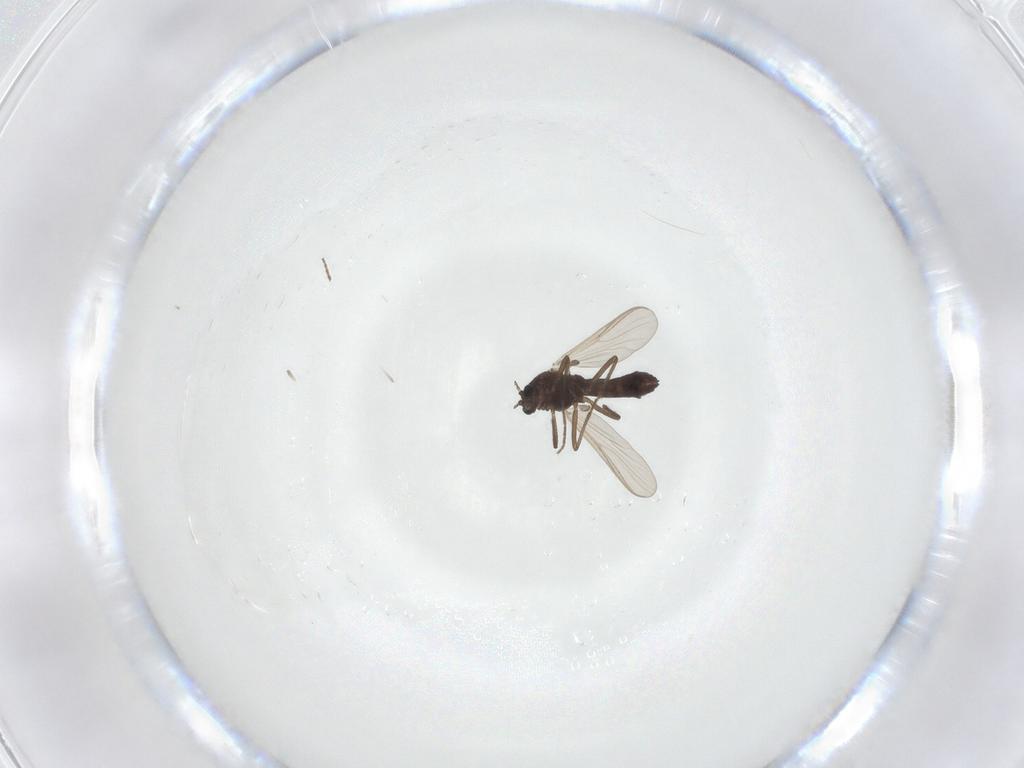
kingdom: Animalia
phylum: Arthropoda
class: Insecta
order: Diptera
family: Chironomidae
